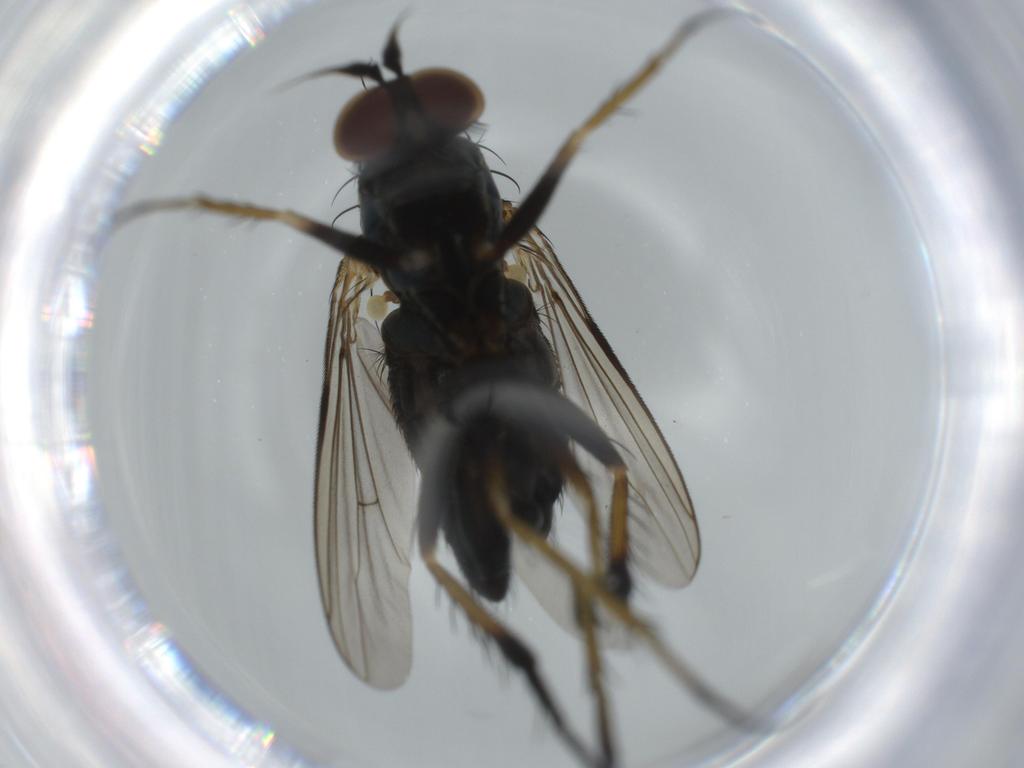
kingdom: Animalia
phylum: Arthropoda
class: Insecta
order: Diptera
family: Dolichopodidae
